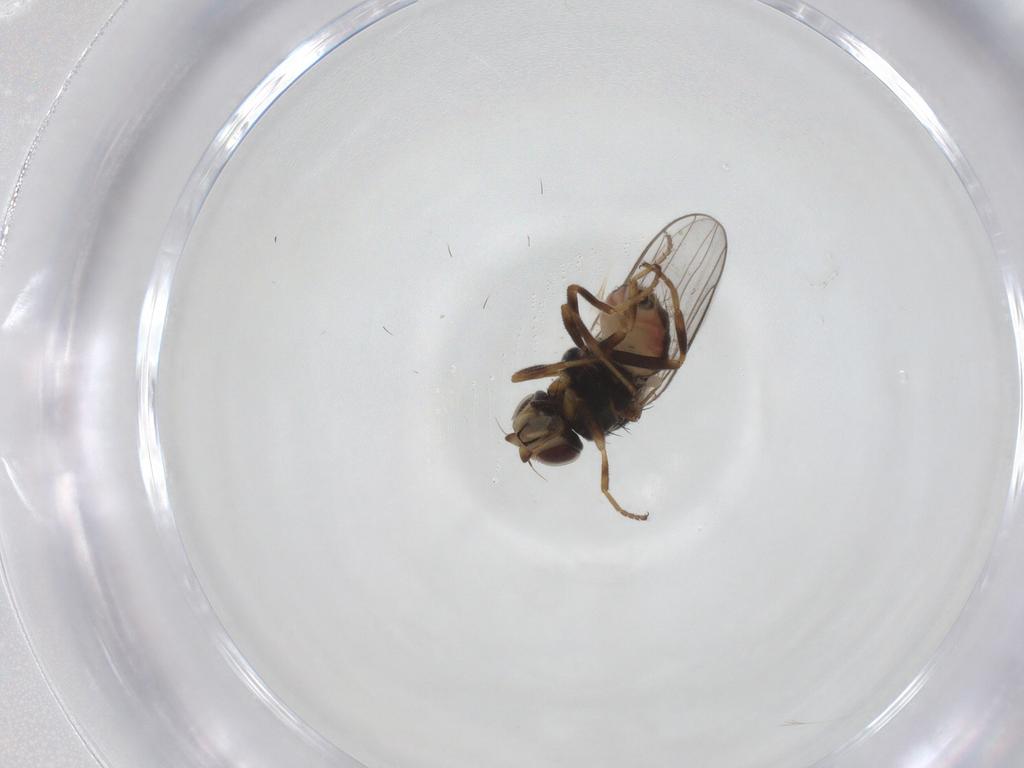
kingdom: Animalia
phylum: Arthropoda
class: Insecta
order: Diptera
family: Chloropidae
